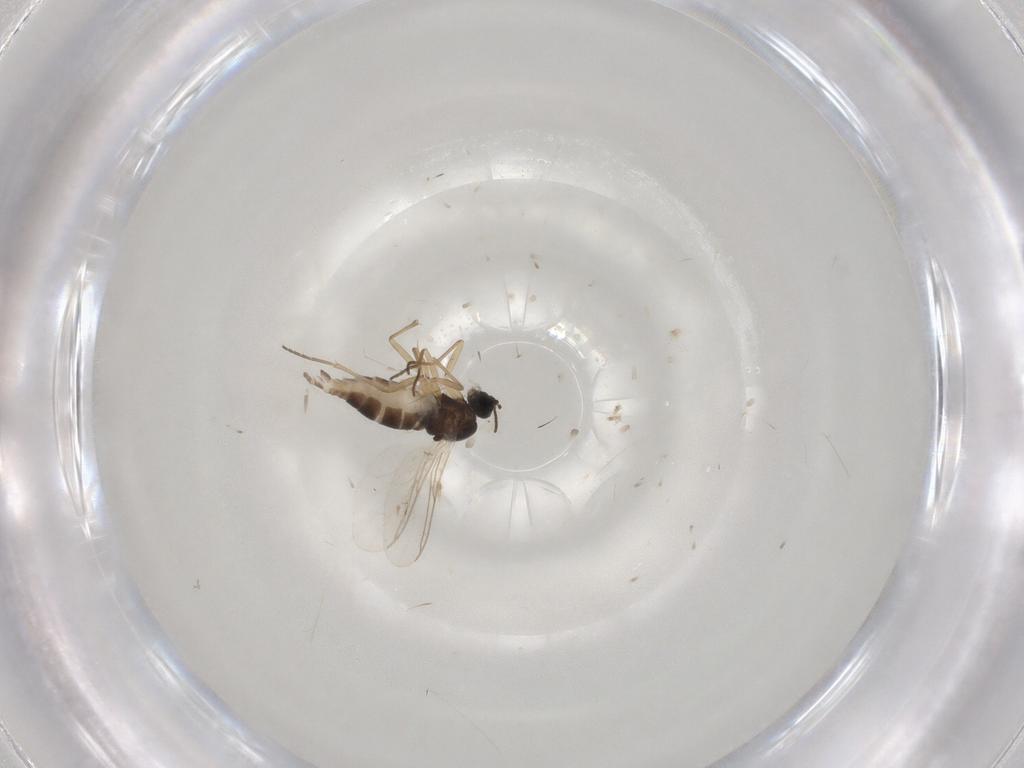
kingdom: Animalia
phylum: Arthropoda
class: Insecta
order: Diptera
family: Sciaridae
